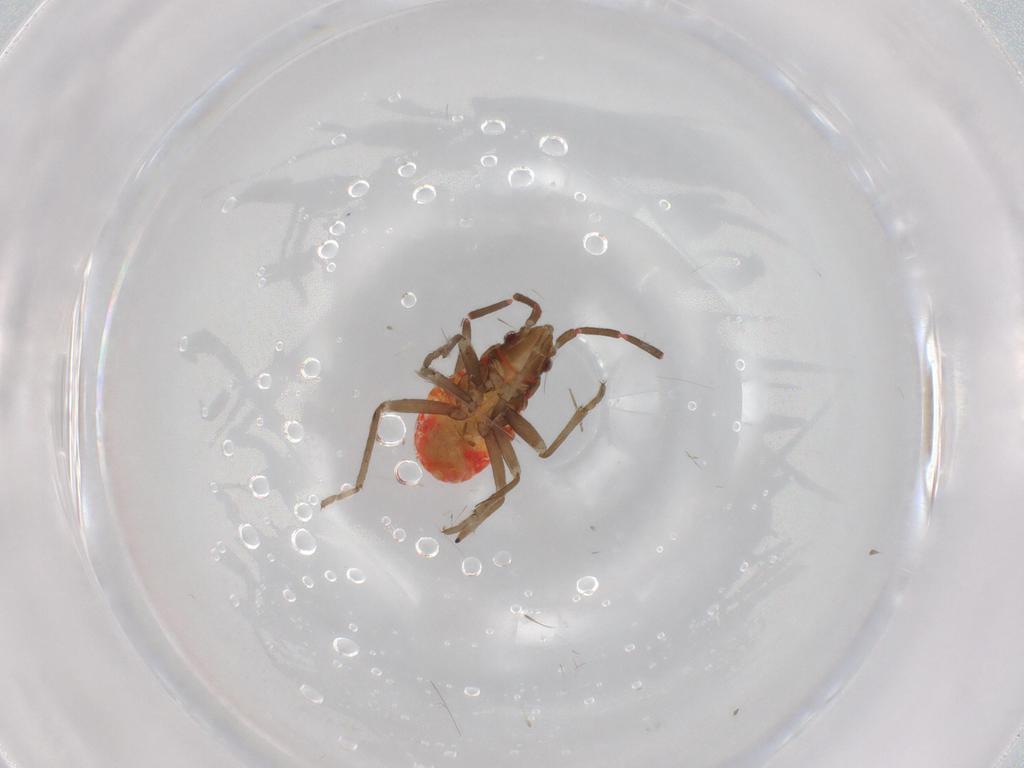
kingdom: Animalia
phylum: Arthropoda
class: Insecta
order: Hemiptera
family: Rhyparochromidae
